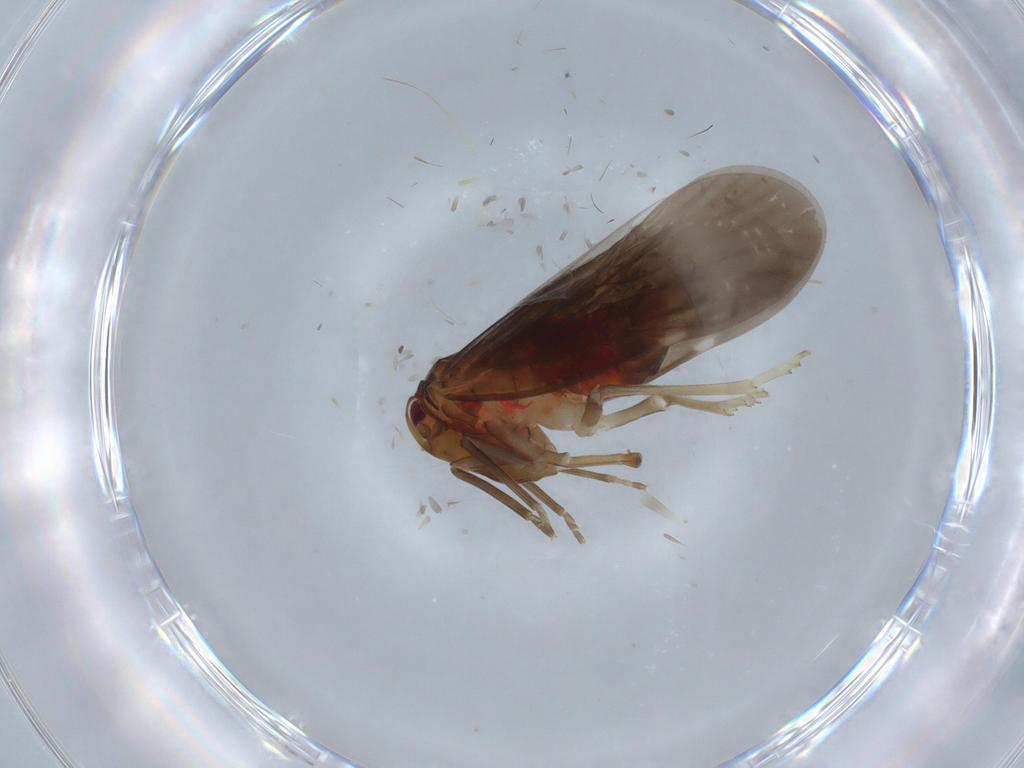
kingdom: Animalia
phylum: Arthropoda
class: Insecta
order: Hemiptera
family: Derbidae
